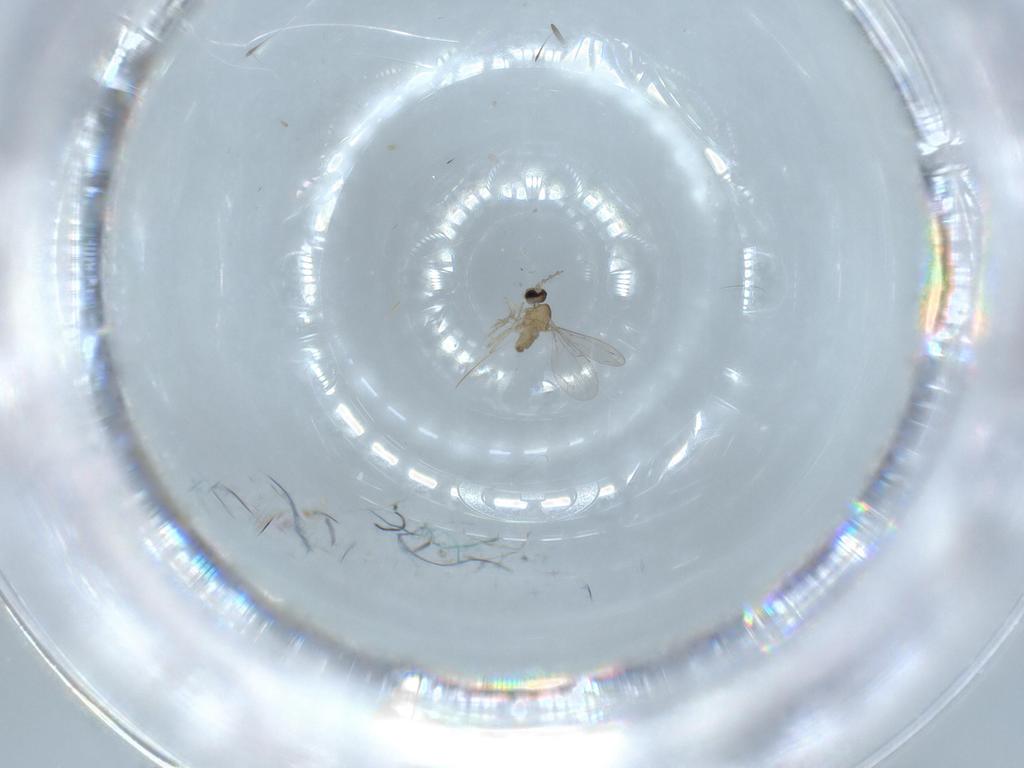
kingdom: Animalia
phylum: Arthropoda
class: Insecta
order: Diptera
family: Cecidomyiidae
